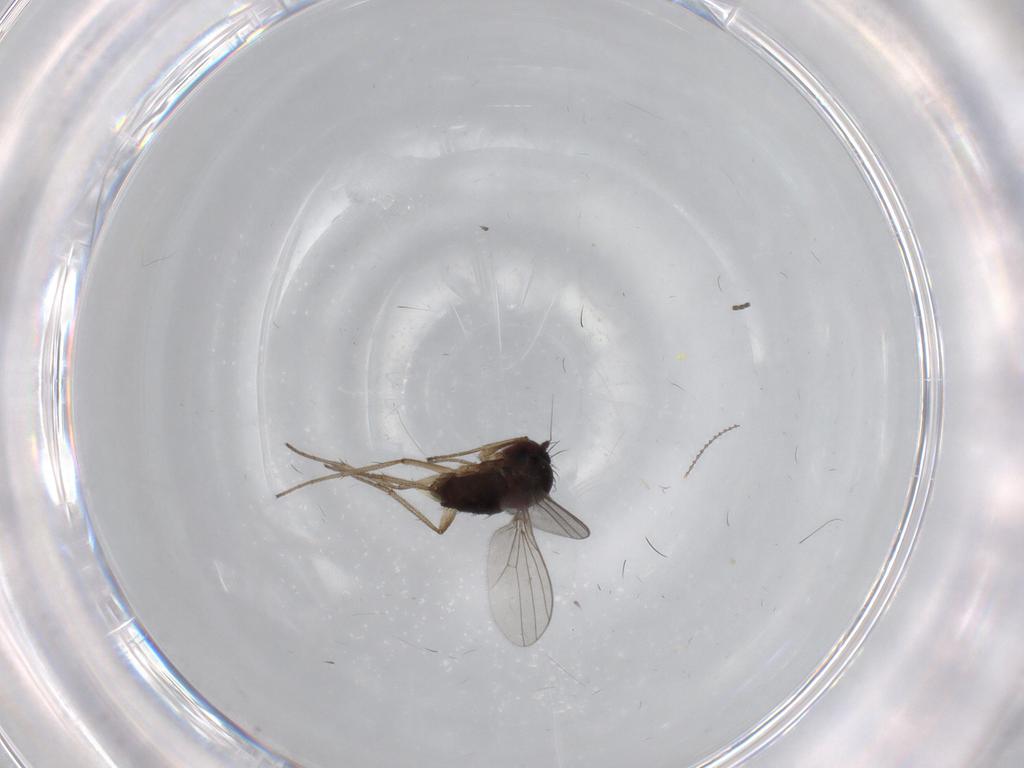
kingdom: Animalia
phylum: Arthropoda
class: Insecta
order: Diptera
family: Dolichopodidae
